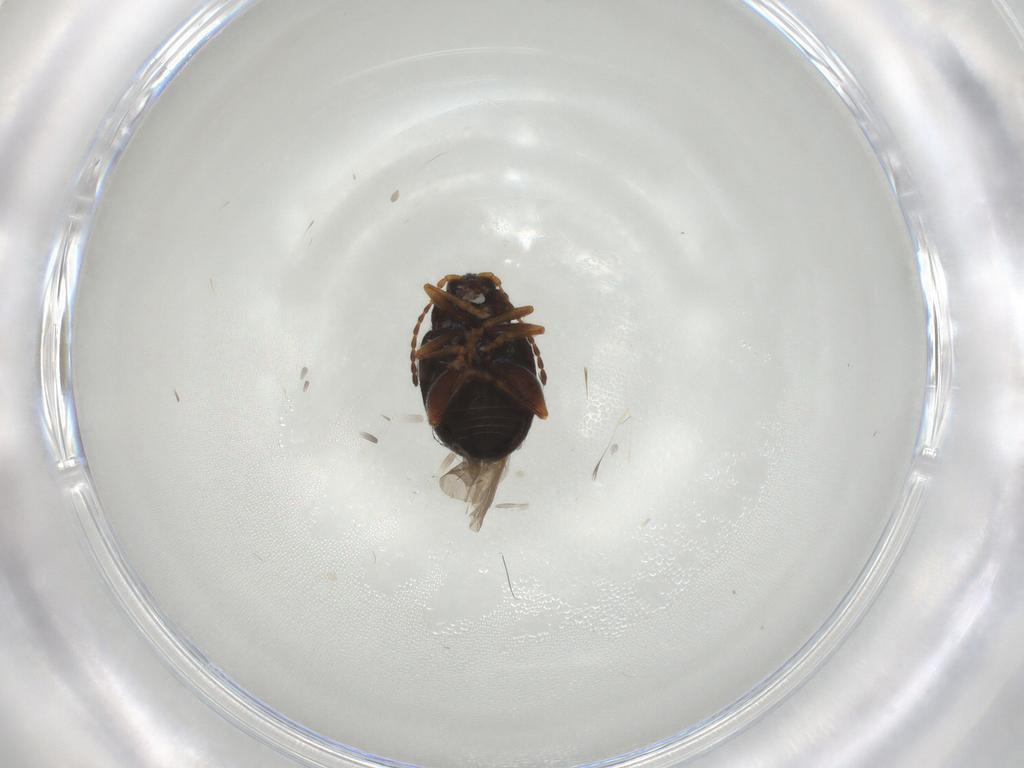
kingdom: Animalia
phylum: Arthropoda
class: Insecta
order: Coleoptera
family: Chrysomelidae
